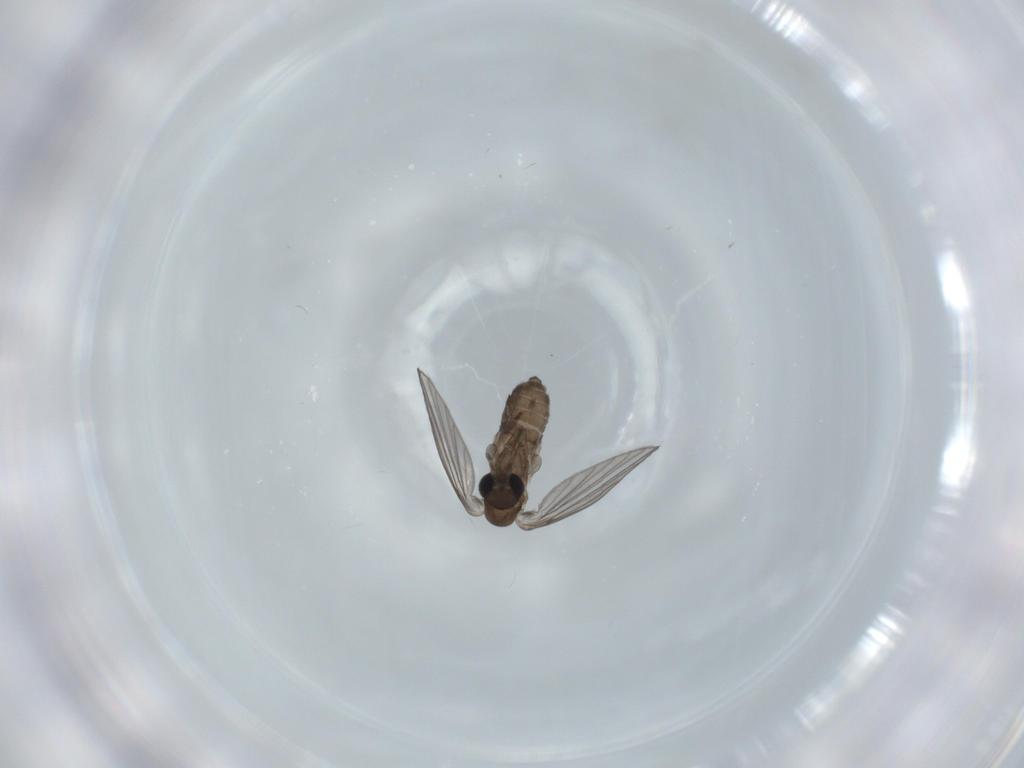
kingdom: Animalia
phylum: Arthropoda
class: Insecta
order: Diptera
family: Psychodidae
